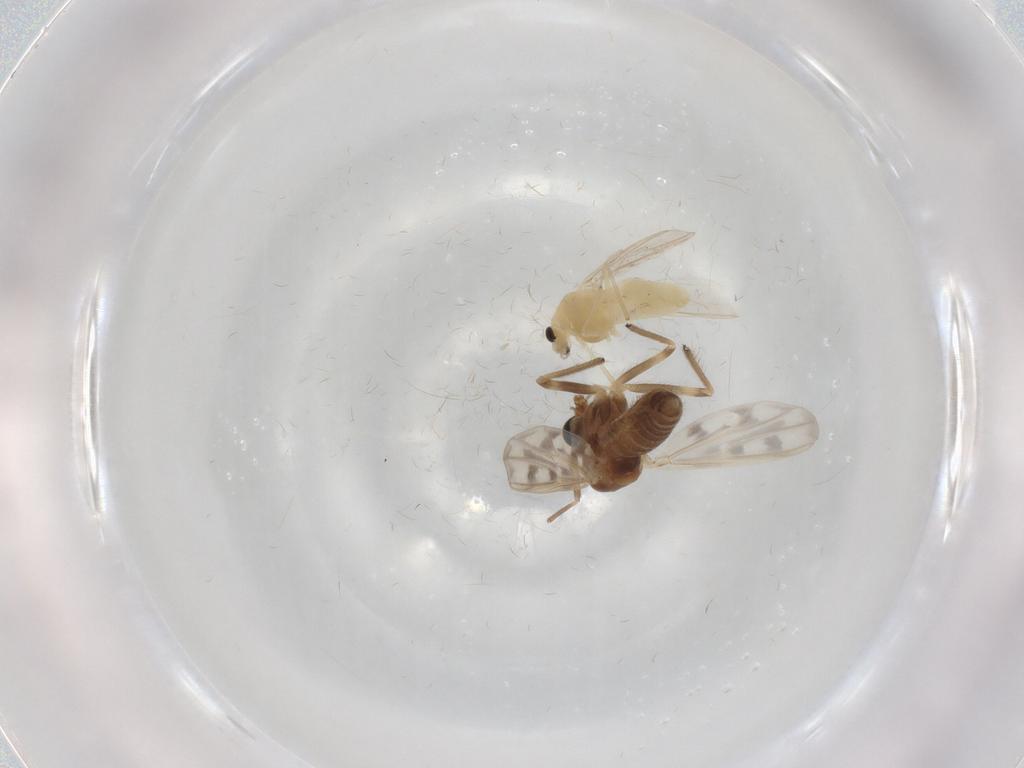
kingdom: Animalia
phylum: Arthropoda
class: Insecta
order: Diptera
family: Chironomidae
